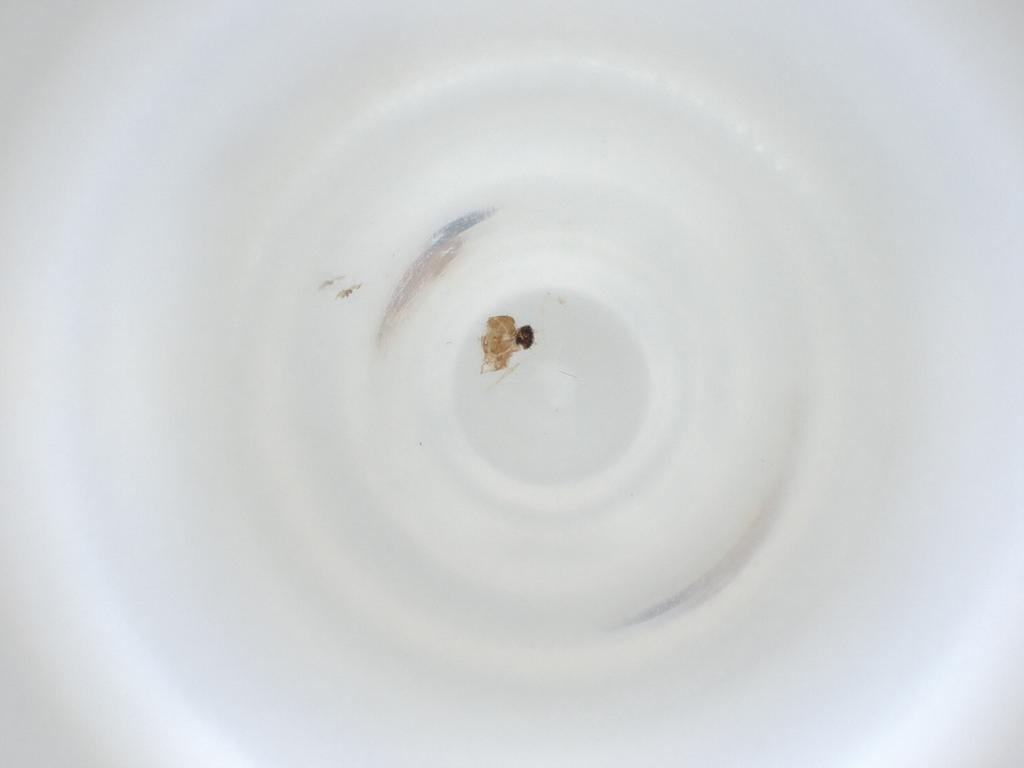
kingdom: Animalia
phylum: Arthropoda
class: Insecta
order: Diptera
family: Cecidomyiidae
